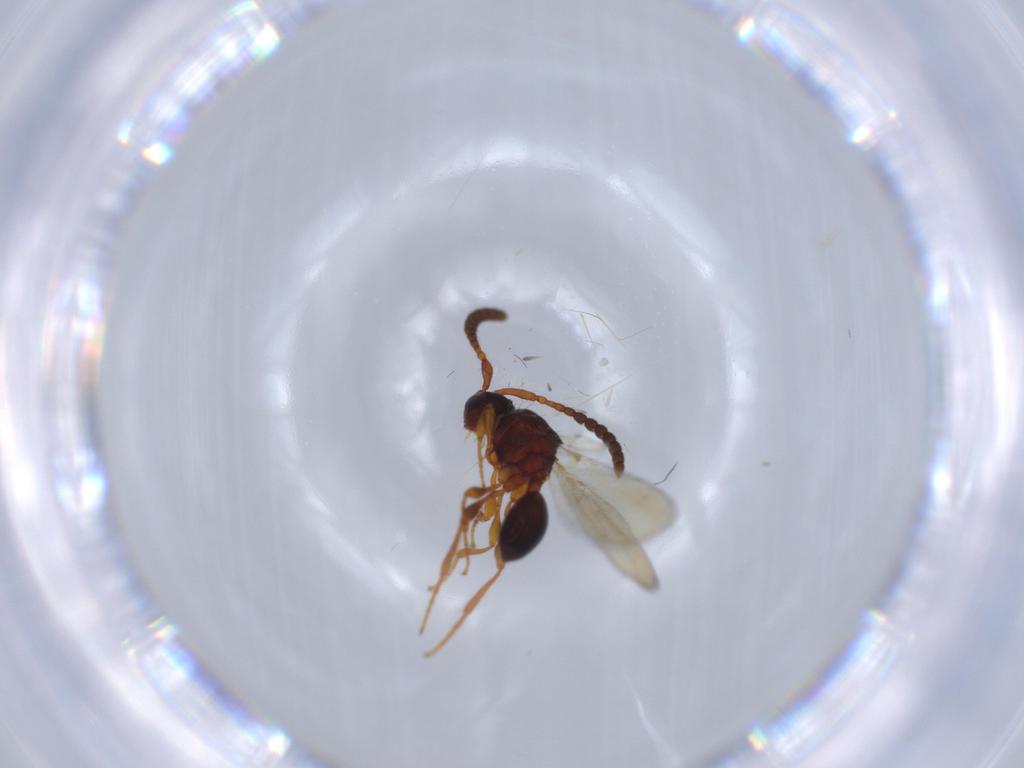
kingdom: Animalia
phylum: Arthropoda
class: Insecta
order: Hymenoptera
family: Diapriidae
